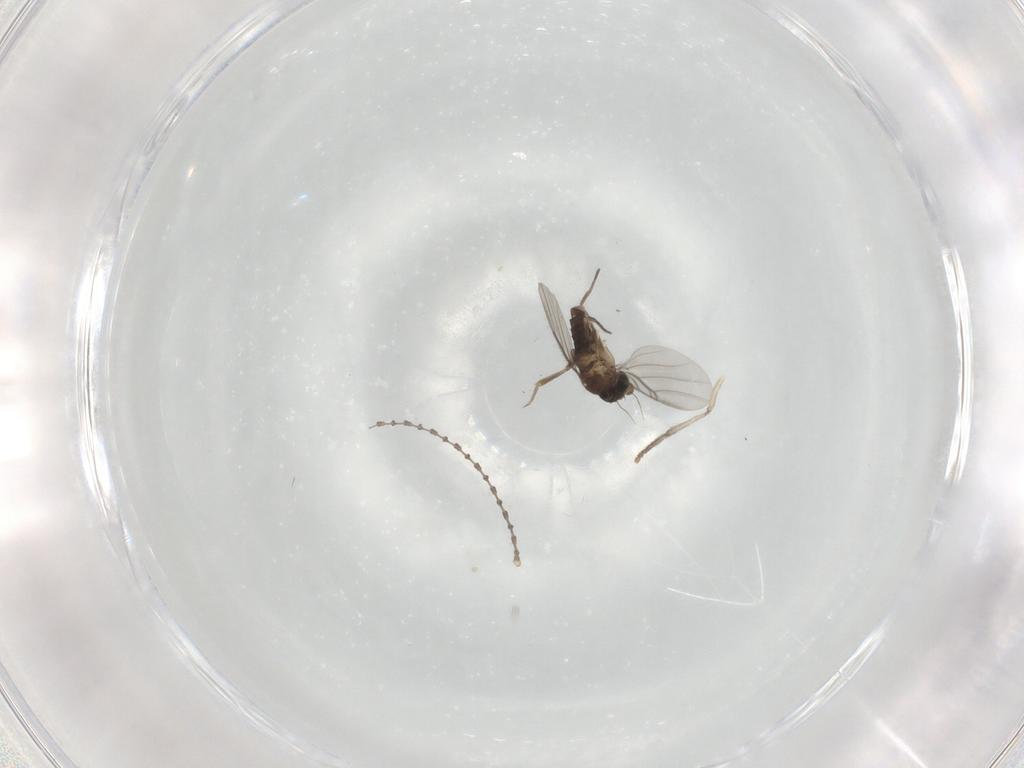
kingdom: Animalia
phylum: Arthropoda
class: Insecta
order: Diptera
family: Psychodidae
